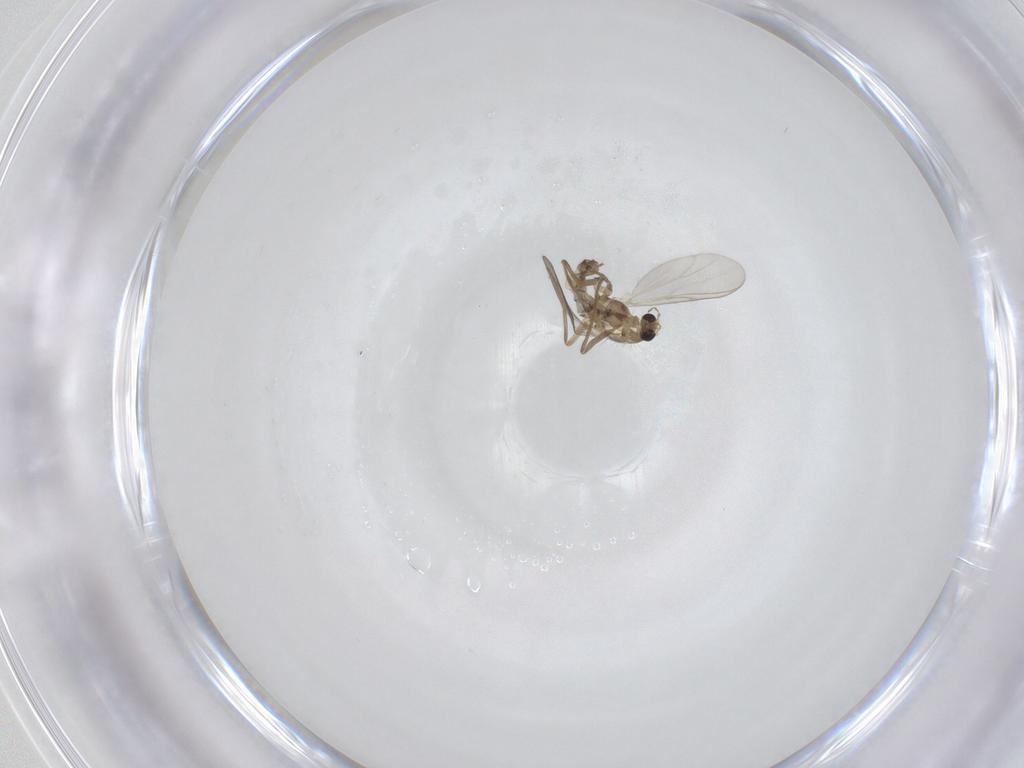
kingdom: Animalia
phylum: Arthropoda
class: Insecta
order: Diptera
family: Chironomidae
